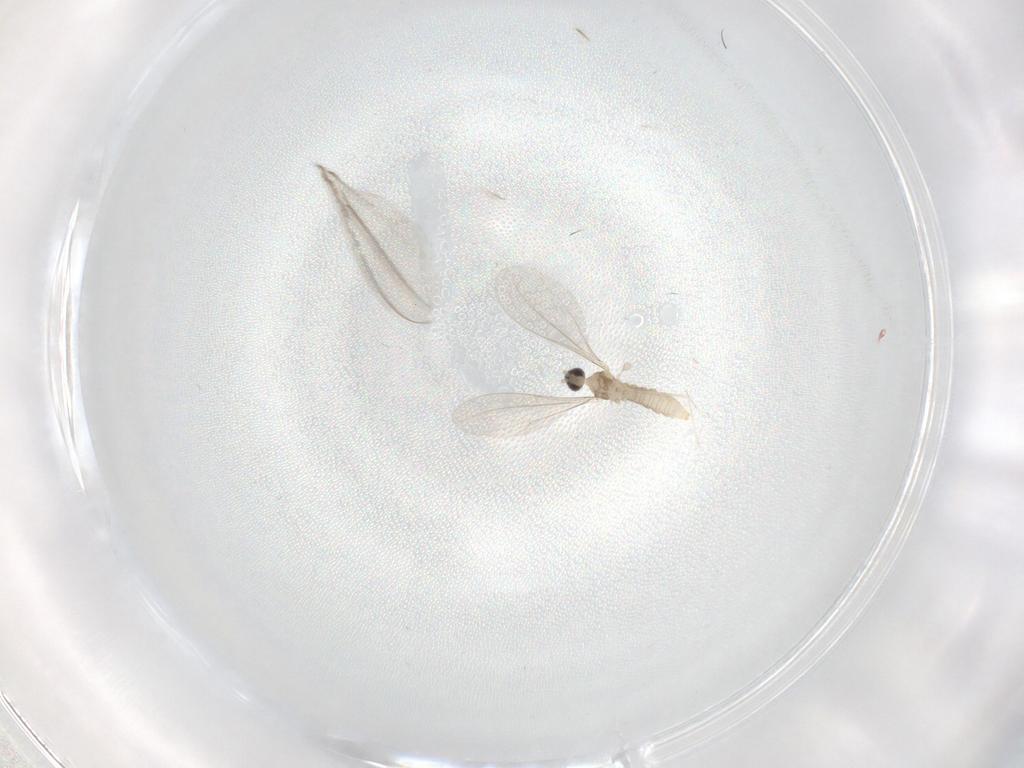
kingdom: Animalia
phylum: Arthropoda
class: Insecta
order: Diptera
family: Cecidomyiidae
